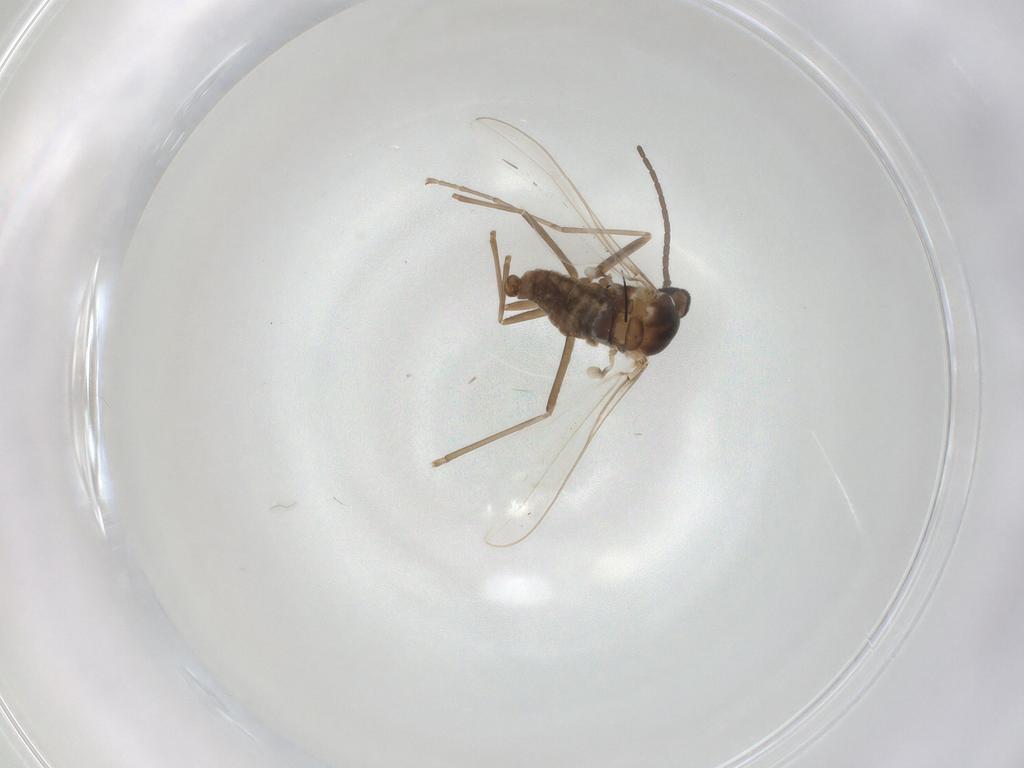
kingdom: Animalia
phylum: Arthropoda
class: Insecta
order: Diptera
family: Cecidomyiidae
